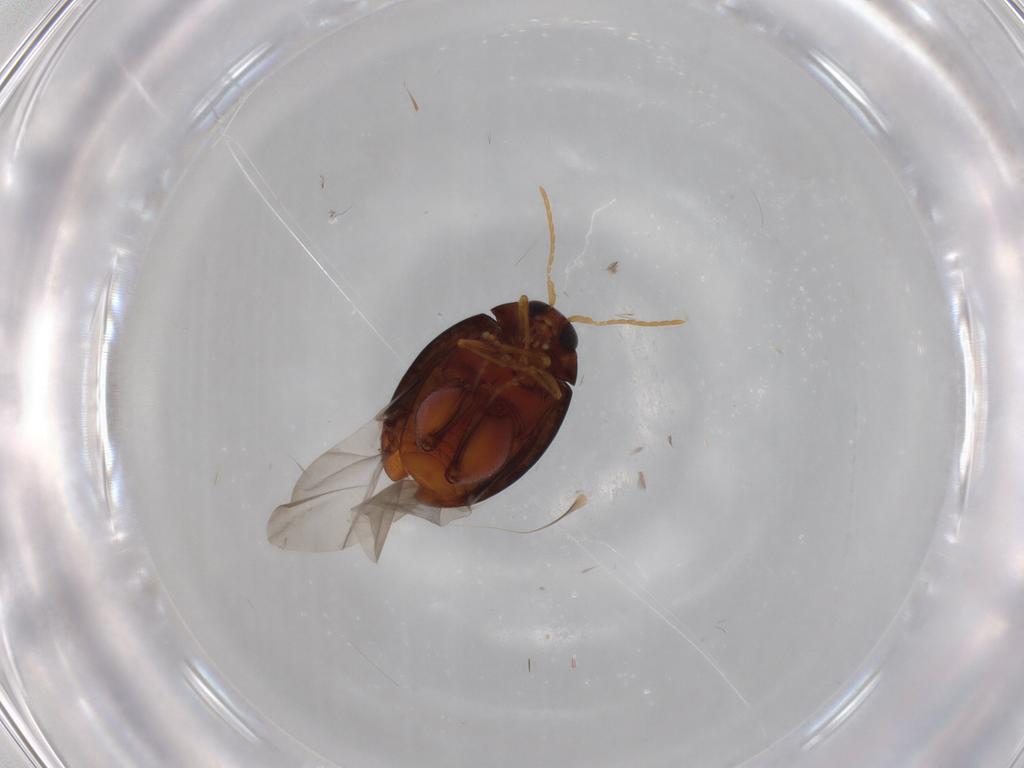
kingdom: Animalia
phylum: Arthropoda
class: Insecta
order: Coleoptera
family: Chrysomelidae
